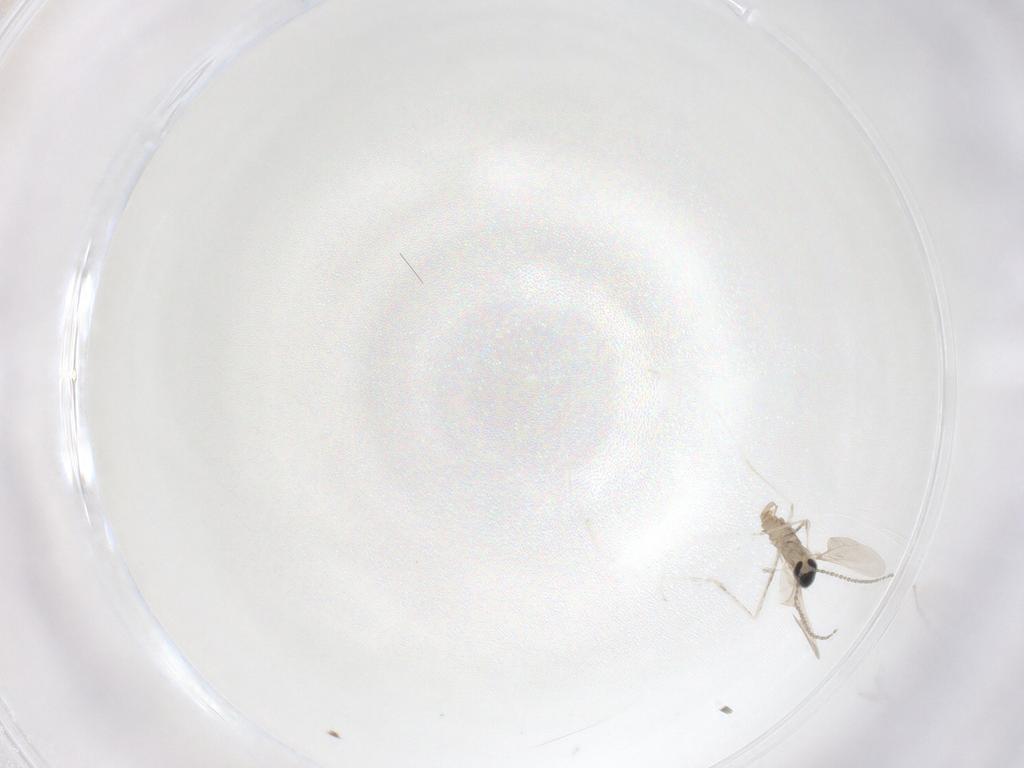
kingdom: Animalia
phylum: Arthropoda
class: Insecta
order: Diptera
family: Cecidomyiidae
